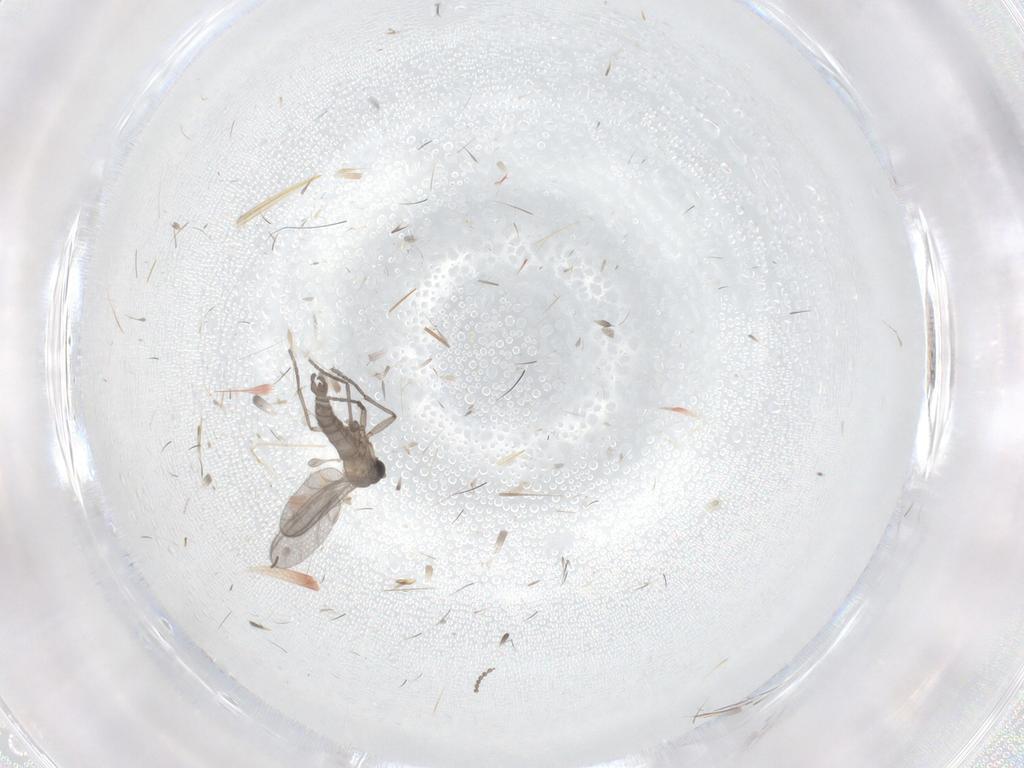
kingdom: Animalia
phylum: Arthropoda
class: Insecta
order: Diptera
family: Sciaridae
